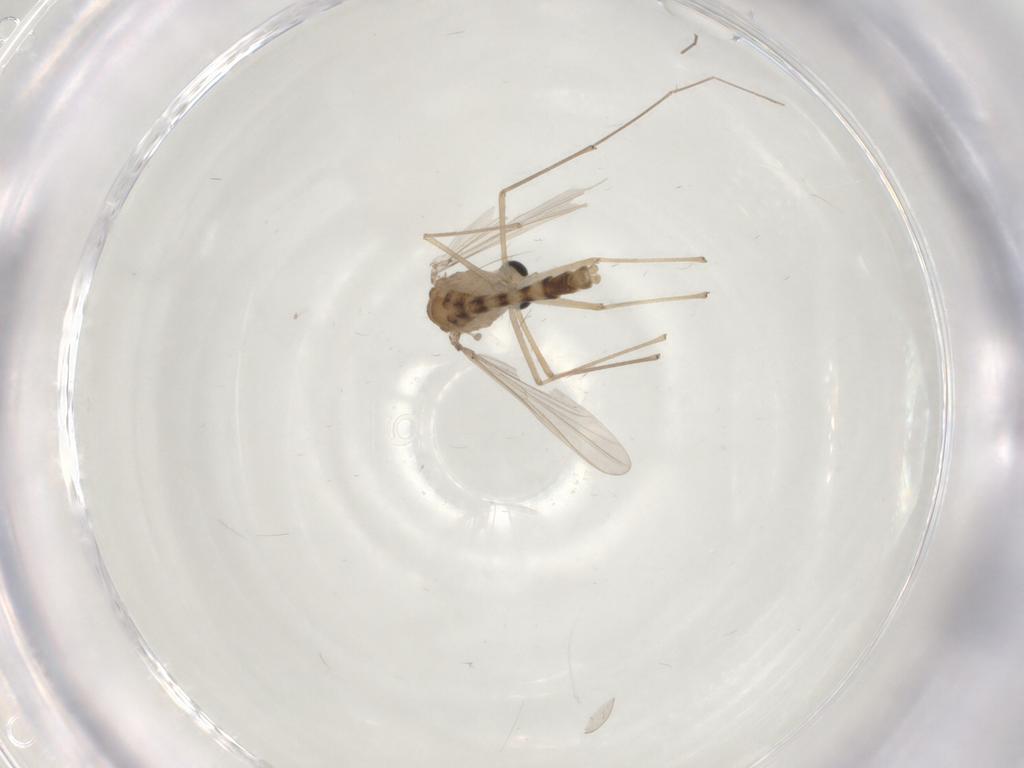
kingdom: Animalia
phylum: Arthropoda
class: Insecta
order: Diptera
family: Chironomidae
